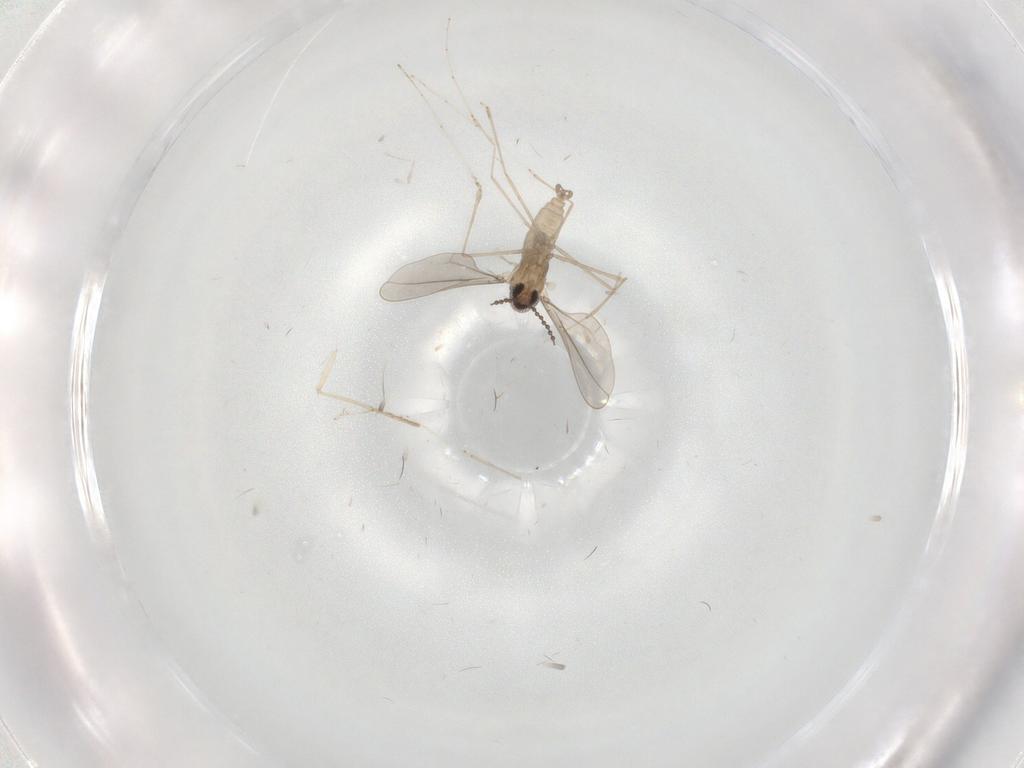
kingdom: Animalia
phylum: Arthropoda
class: Insecta
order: Diptera
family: Cecidomyiidae
